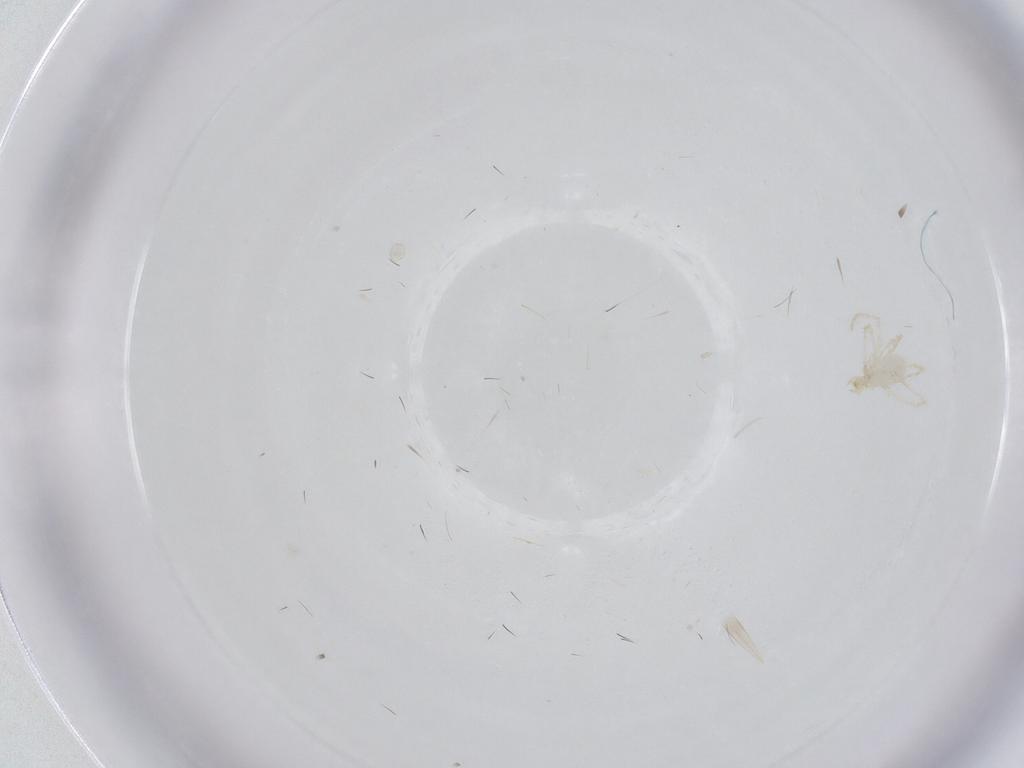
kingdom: Animalia
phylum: Arthropoda
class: Arachnida
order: Trombidiformes
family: Erythraeidae
